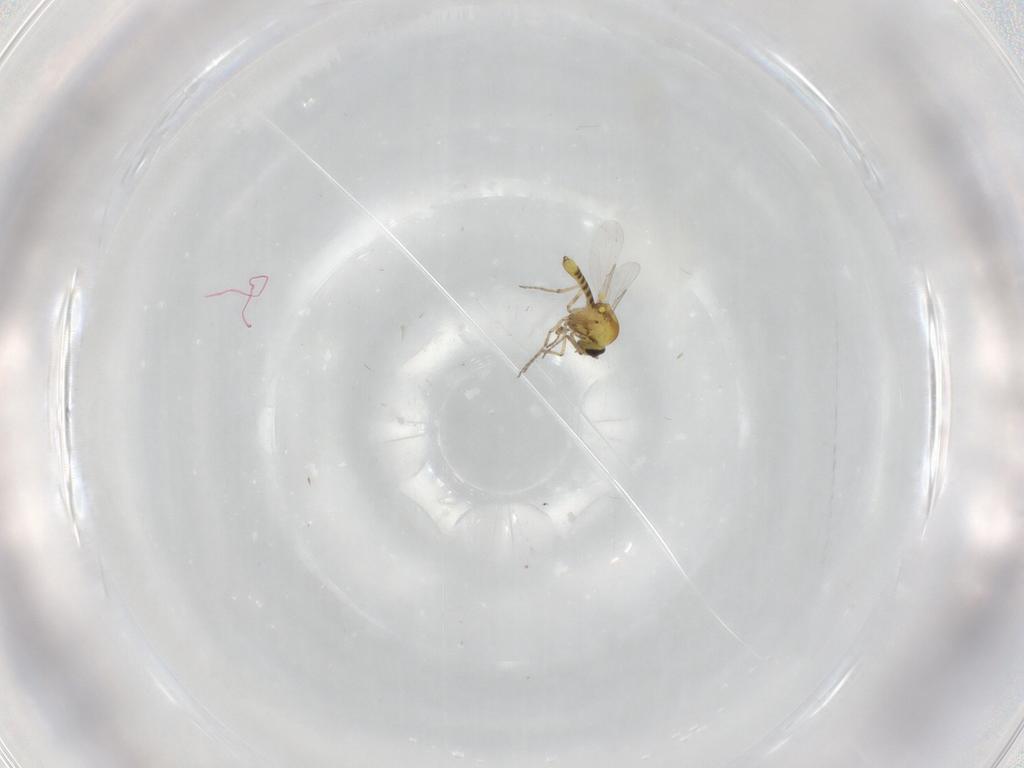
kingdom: Animalia
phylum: Arthropoda
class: Insecta
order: Diptera
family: Ceratopogonidae
